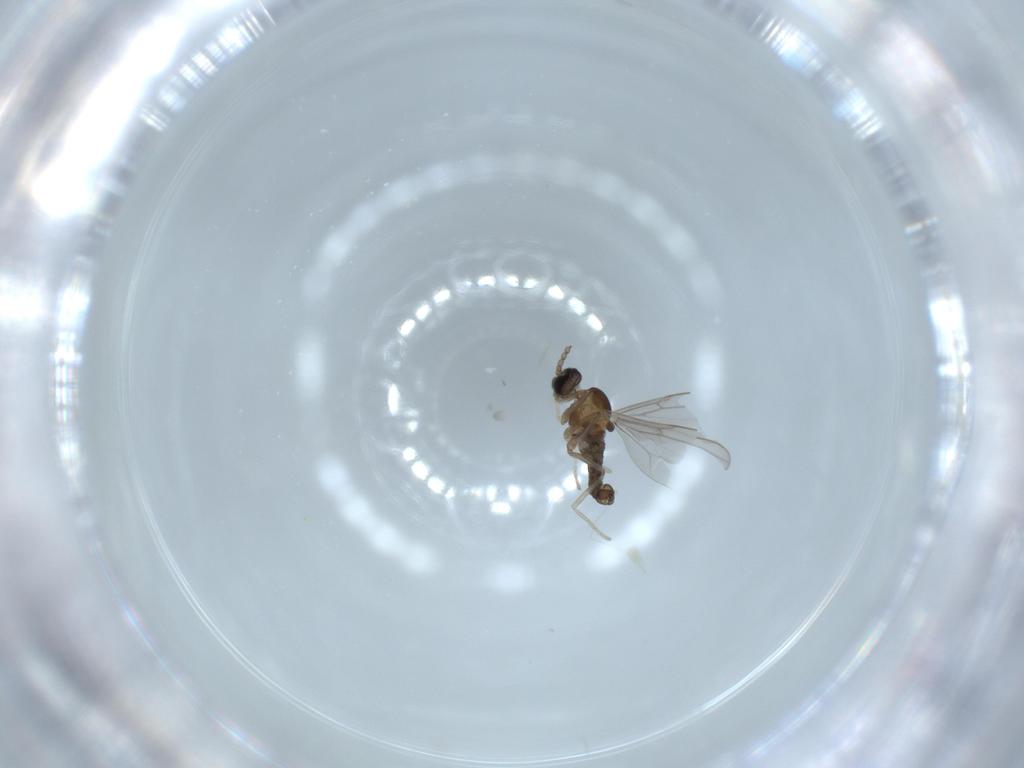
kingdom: Animalia
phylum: Arthropoda
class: Insecta
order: Diptera
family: Cecidomyiidae
